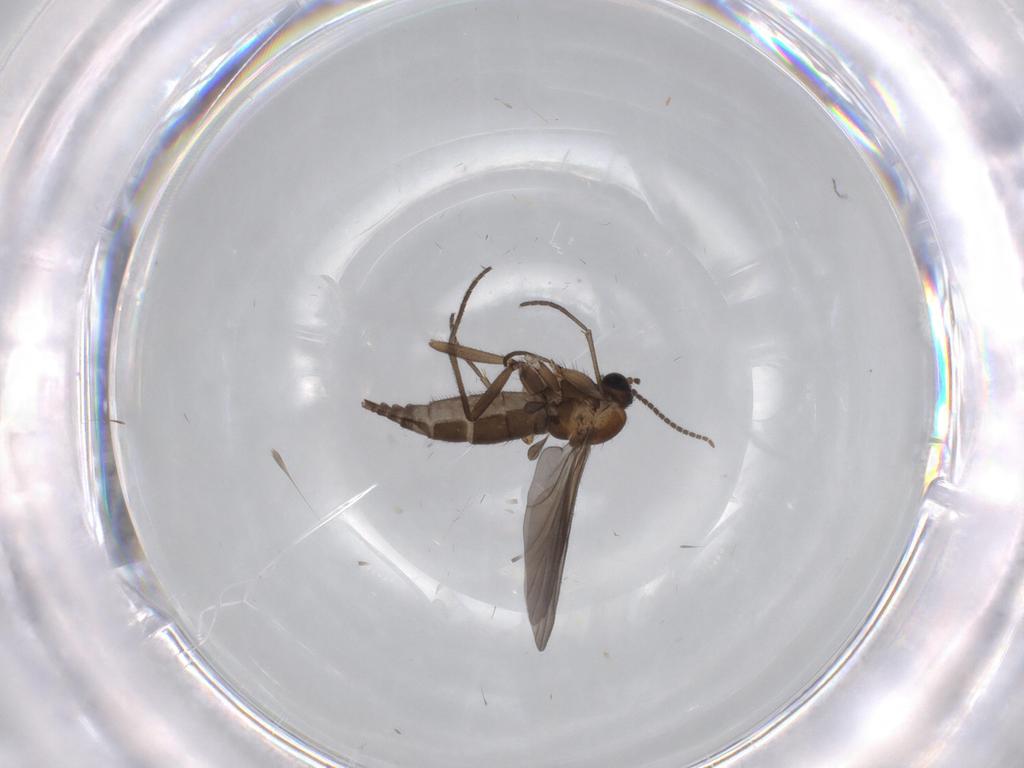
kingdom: Animalia
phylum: Arthropoda
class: Insecta
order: Diptera
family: Sciaridae
